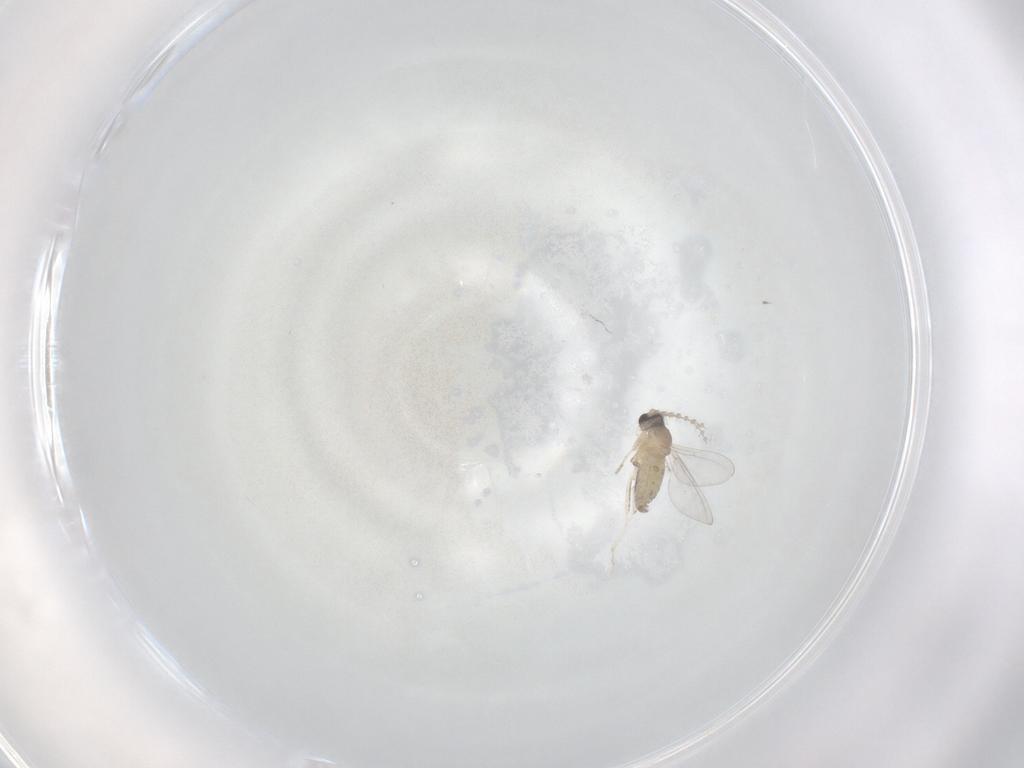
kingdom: Animalia
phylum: Arthropoda
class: Insecta
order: Diptera
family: Cecidomyiidae
